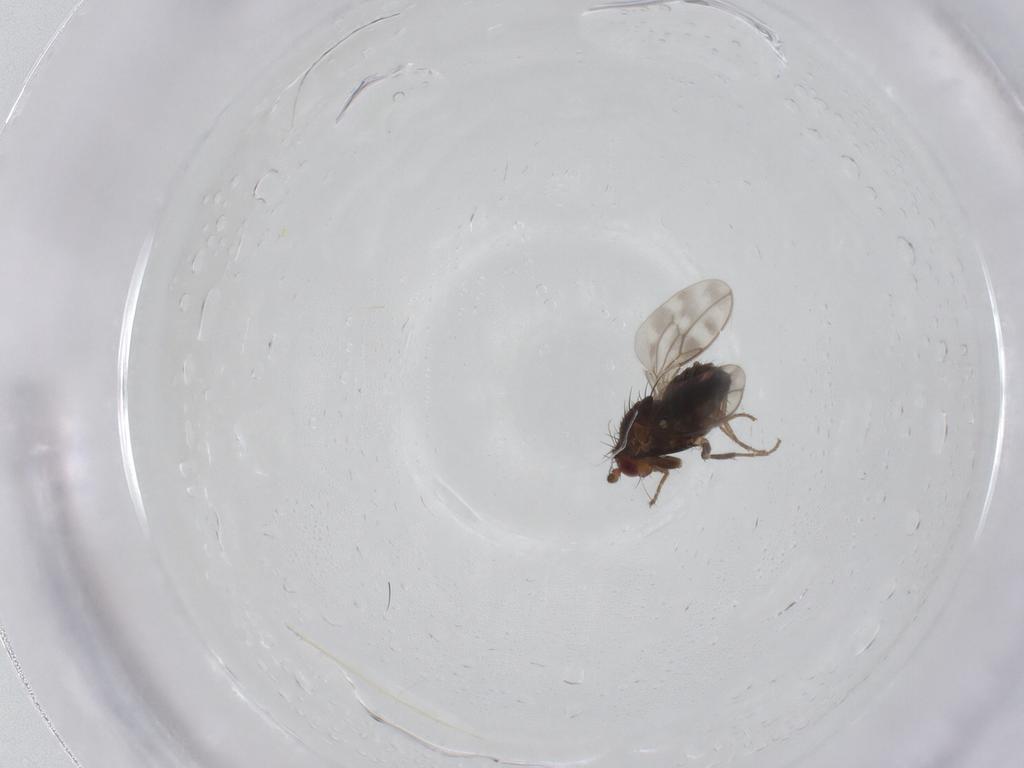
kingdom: Animalia
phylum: Arthropoda
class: Insecta
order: Diptera
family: Sphaeroceridae
